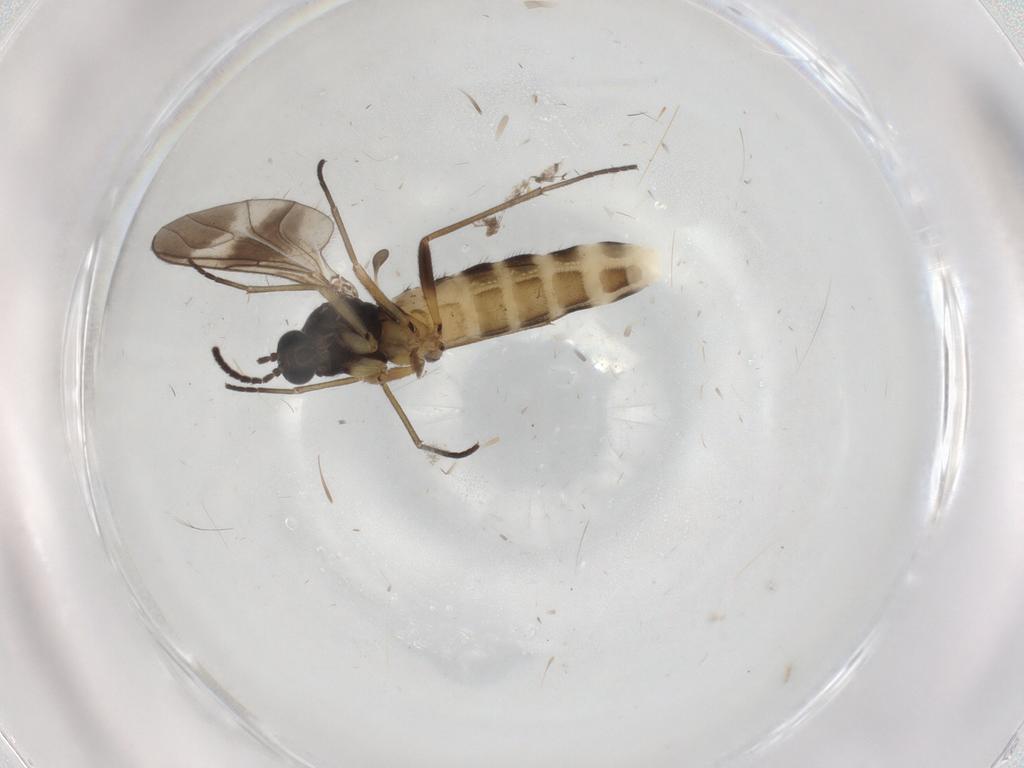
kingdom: Animalia
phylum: Arthropoda
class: Insecta
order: Diptera
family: Sciaridae
